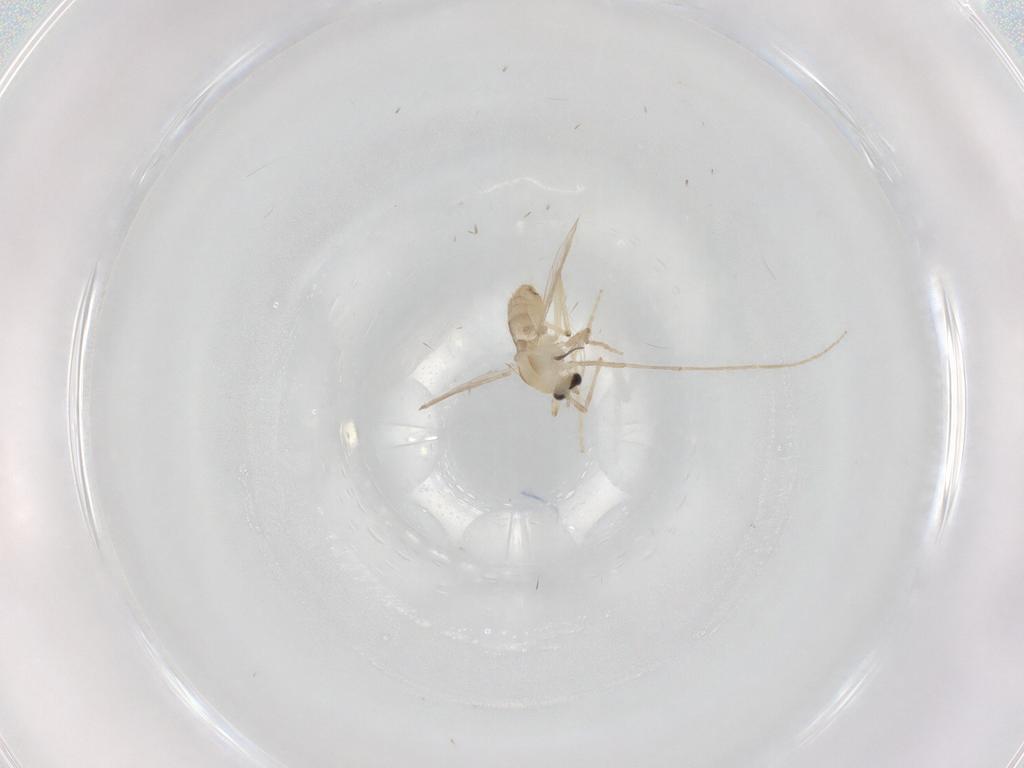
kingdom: Animalia
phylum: Arthropoda
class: Insecta
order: Diptera
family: Chironomidae
